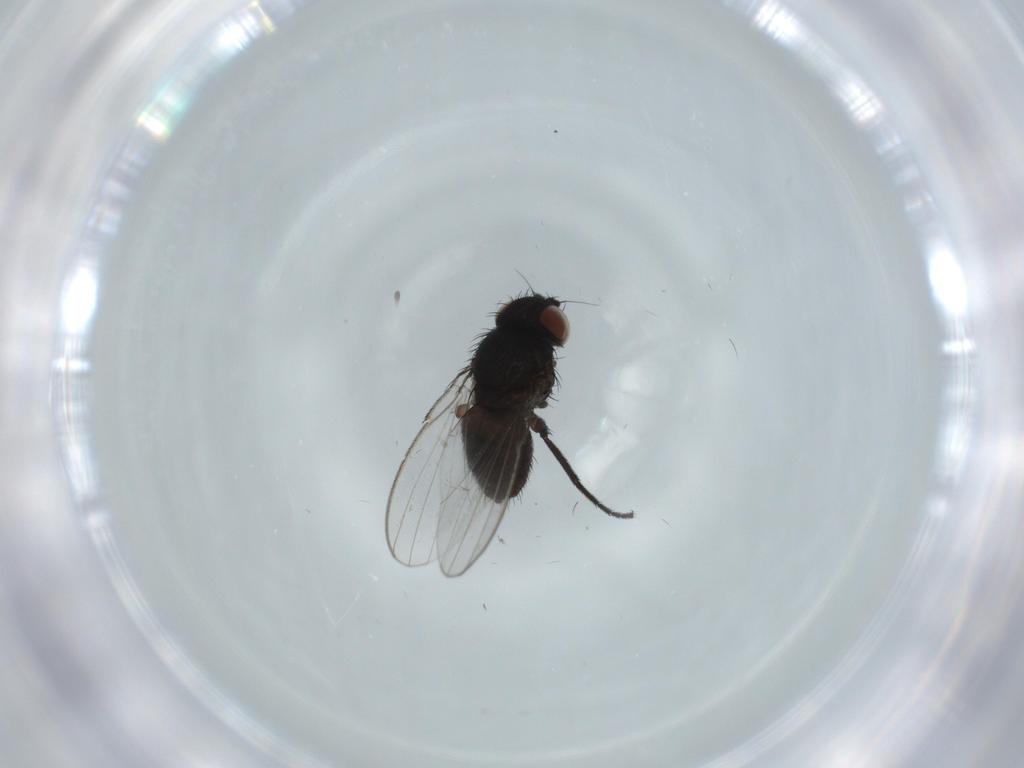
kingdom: Animalia
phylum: Arthropoda
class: Insecta
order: Diptera
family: Milichiidae
